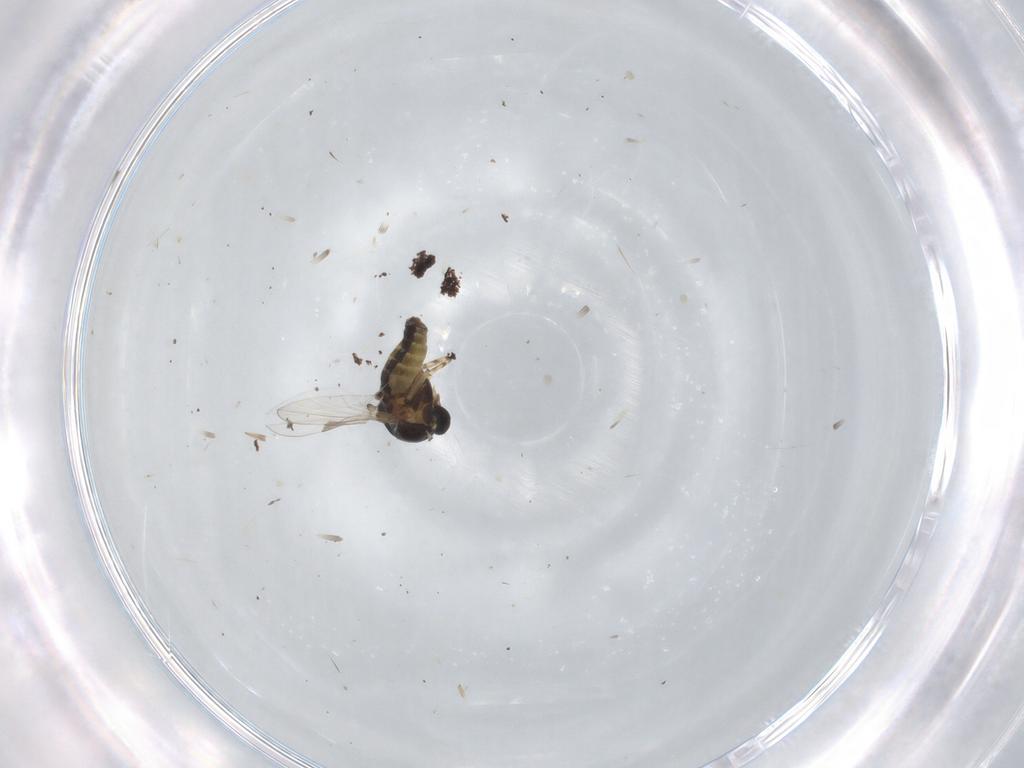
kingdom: Animalia
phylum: Arthropoda
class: Insecta
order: Diptera
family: Ceratopogonidae
